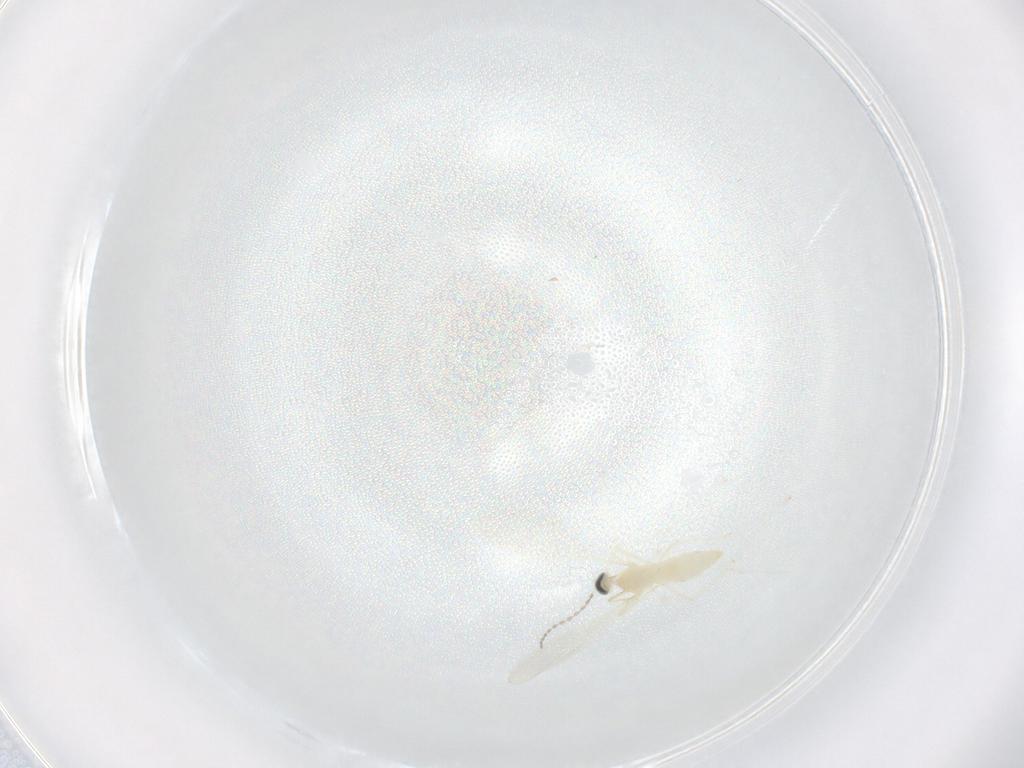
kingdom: Animalia
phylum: Arthropoda
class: Insecta
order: Diptera
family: Cecidomyiidae
